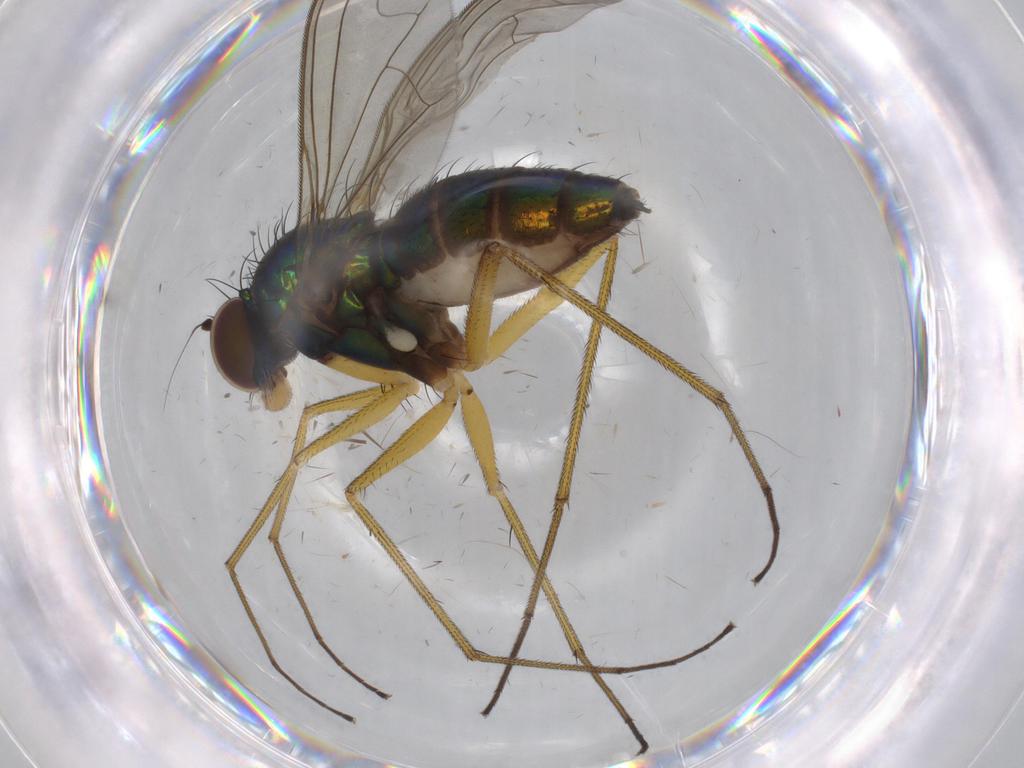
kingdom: Animalia
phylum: Arthropoda
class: Insecta
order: Diptera
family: Dolichopodidae
